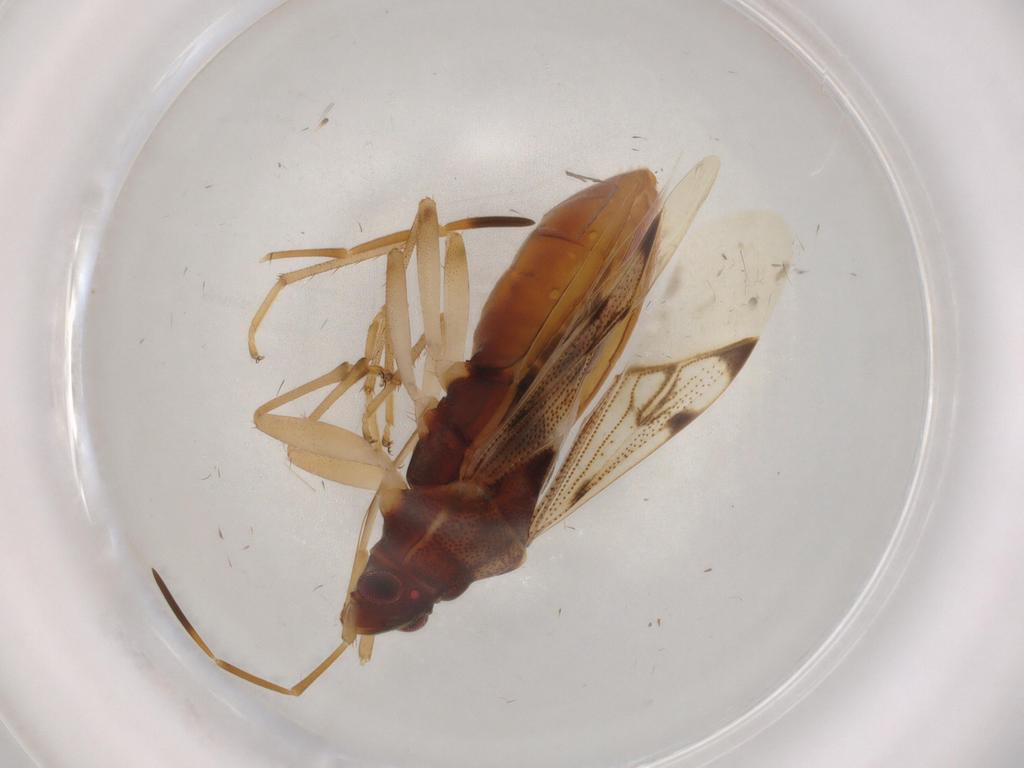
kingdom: Animalia
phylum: Arthropoda
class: Insecta
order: Hemiptera
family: Rhyparochromidae
